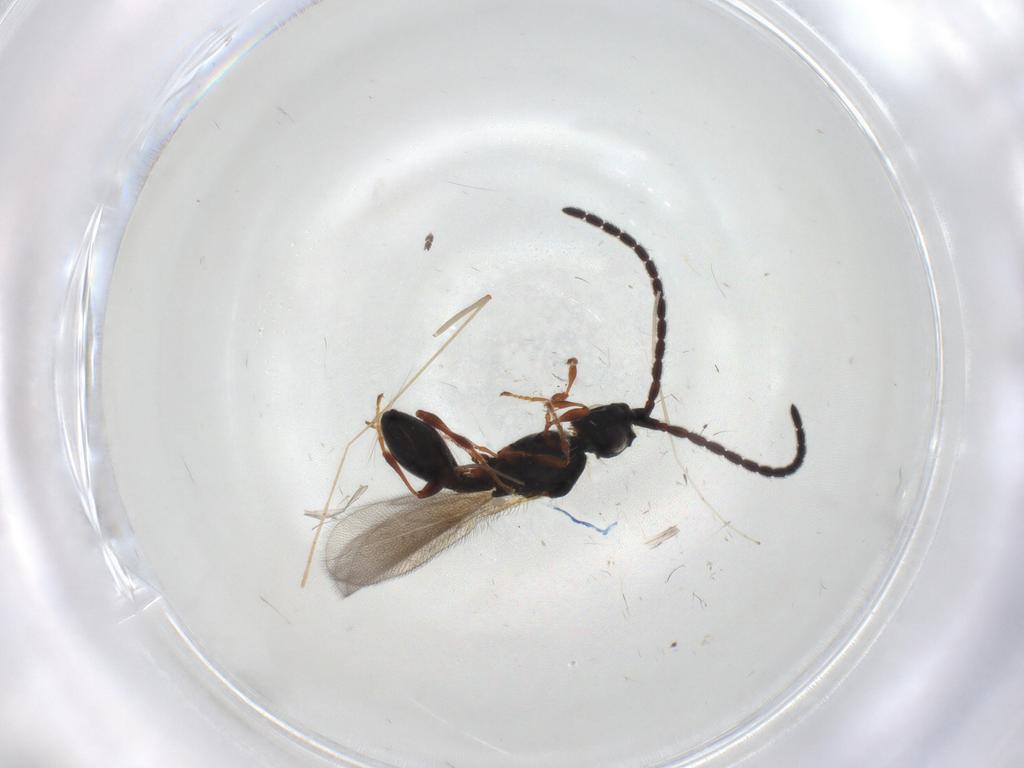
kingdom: Animalia
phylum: Arthropoda
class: Insecta
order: Hymenoptera
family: Diapriidae
